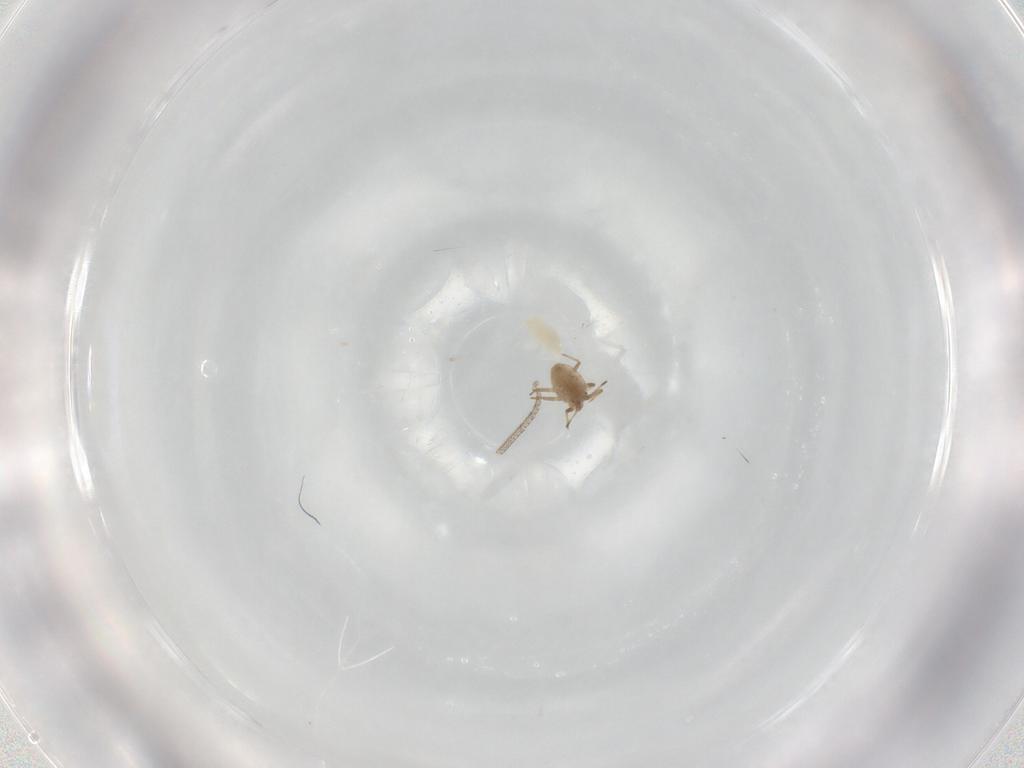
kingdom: Animalia
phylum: Arthropoda
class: Arachnida
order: Trombidiformes
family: Eupodidae
